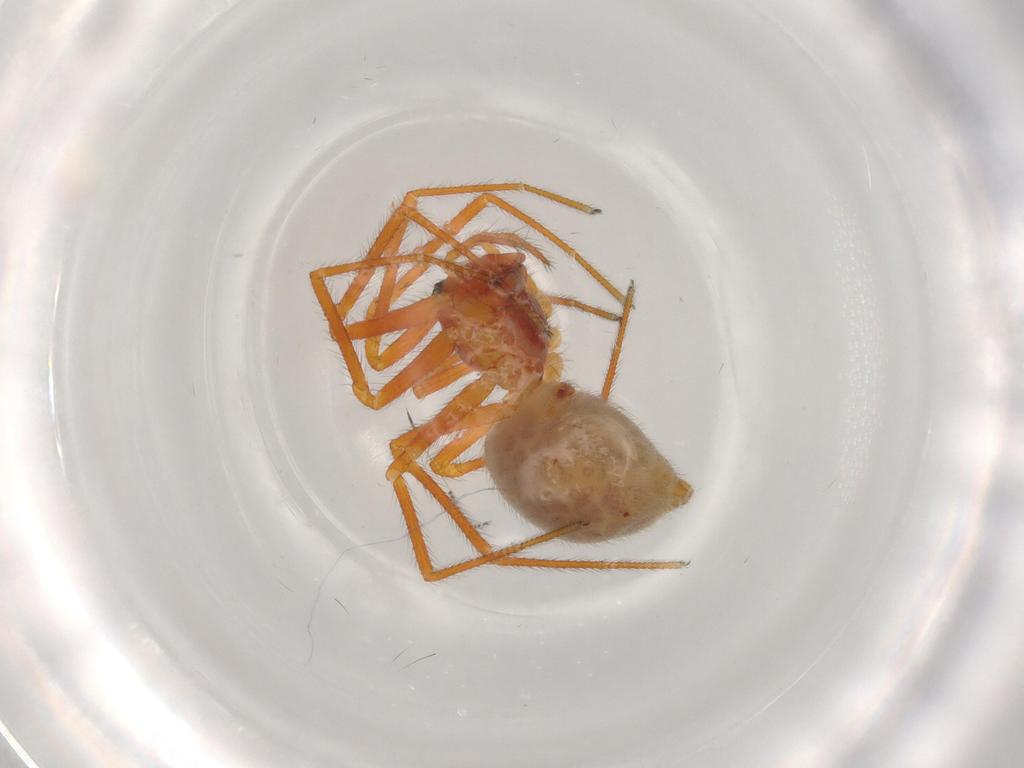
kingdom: Animalia
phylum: Arthropoda
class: Arachnida
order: Araneae
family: Linyphiidae
